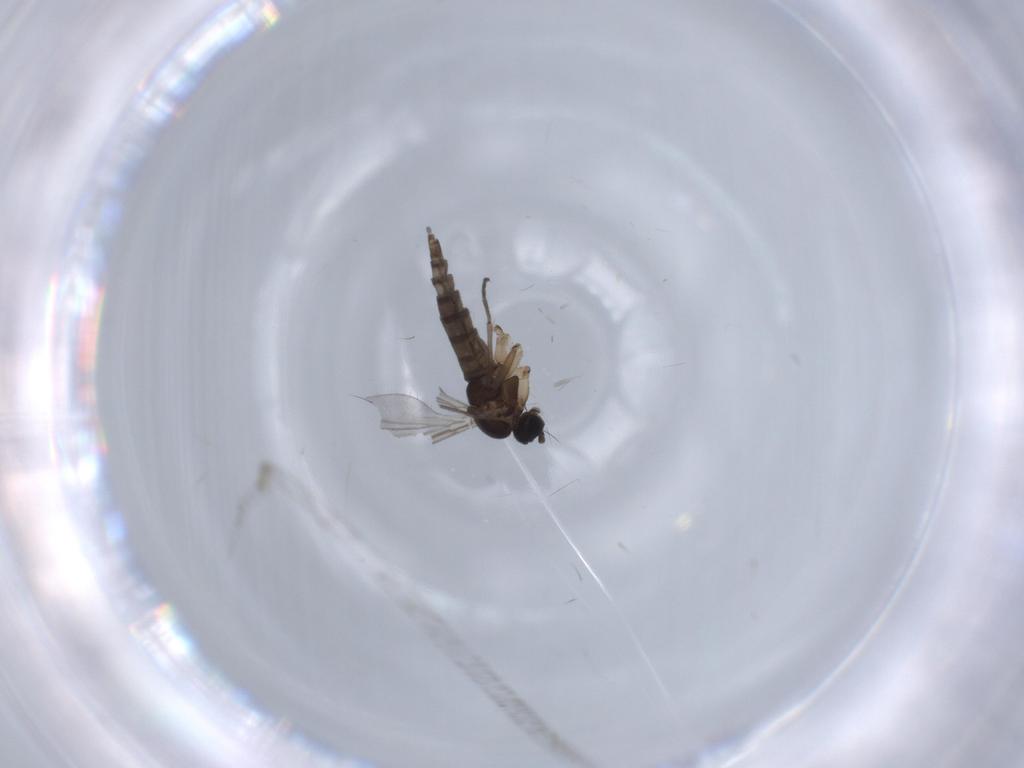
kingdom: Animalia
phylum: Arthropoda
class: Insecta
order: Diptera
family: Sciaridae
